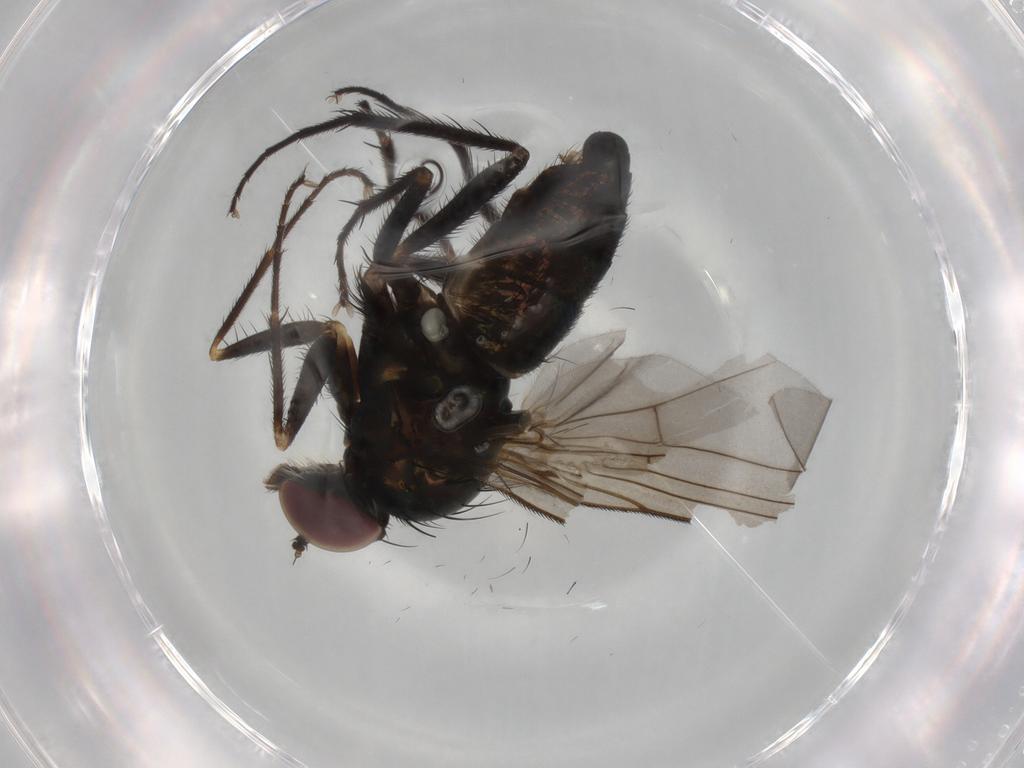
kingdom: Animalia
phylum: Arthropoda
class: Insecta
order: Diptera
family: Dolichopodidae
